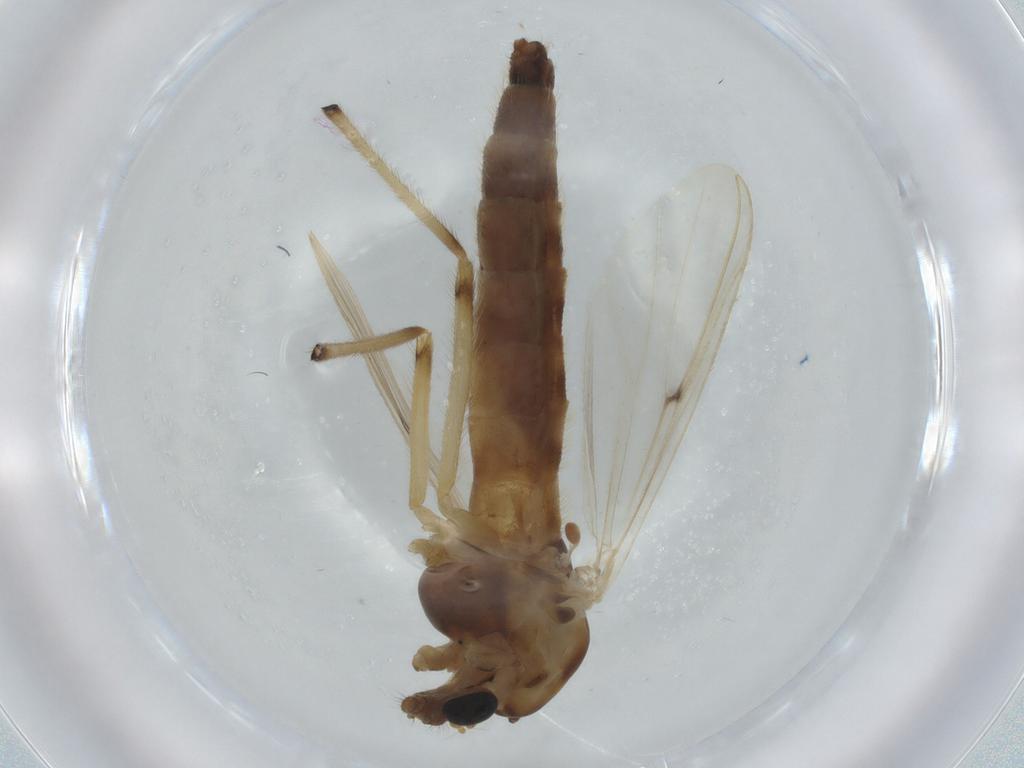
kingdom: Animalia
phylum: Arthropoda
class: Insecta
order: Diptera
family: Chironomidae
